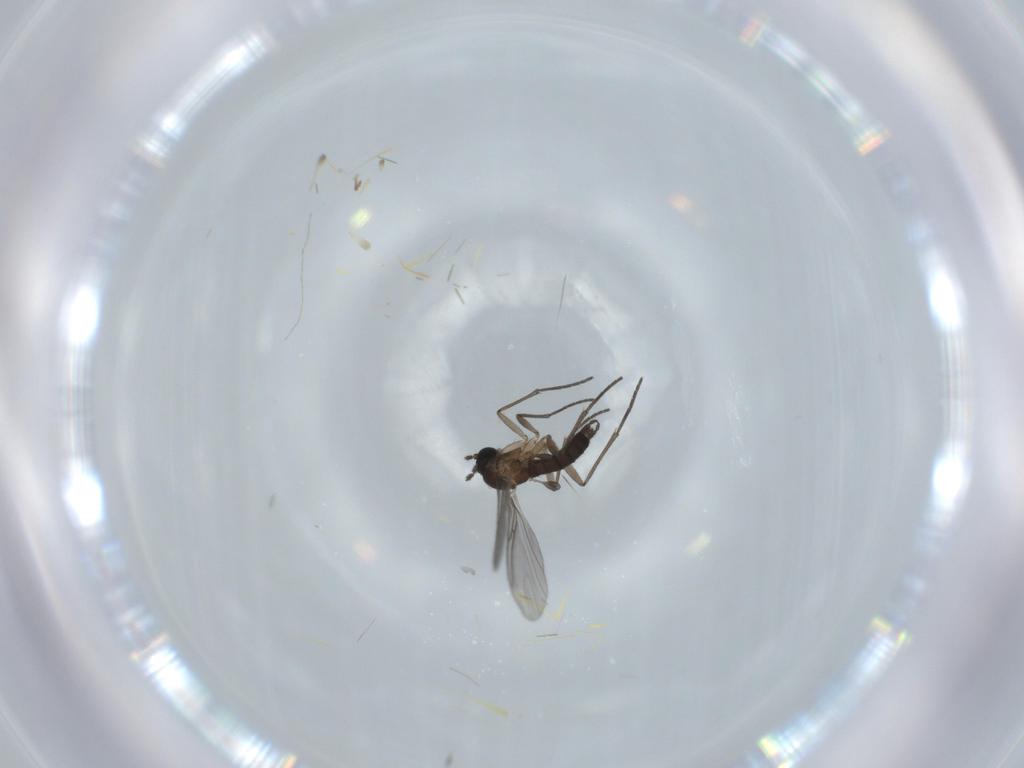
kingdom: Animalia
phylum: Arthropoda
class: Insecta
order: Diptera
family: Sciaridae
